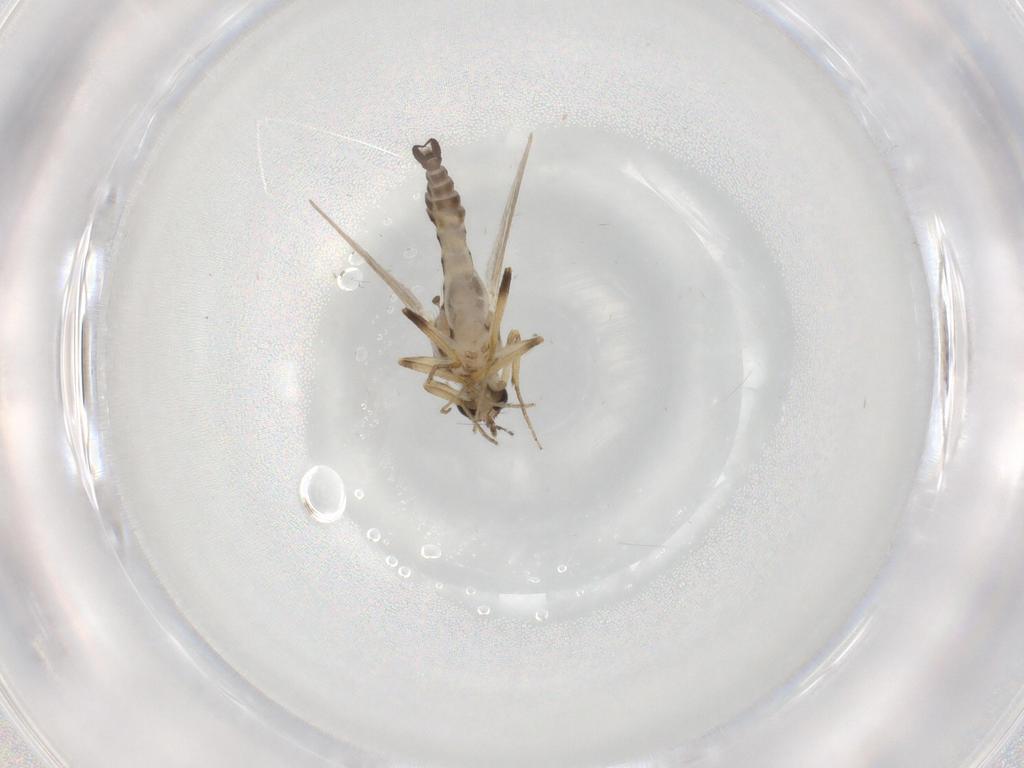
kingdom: Animalia
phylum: Arthropoda
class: Insecta
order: Diptera
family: Ceratopogonidae
